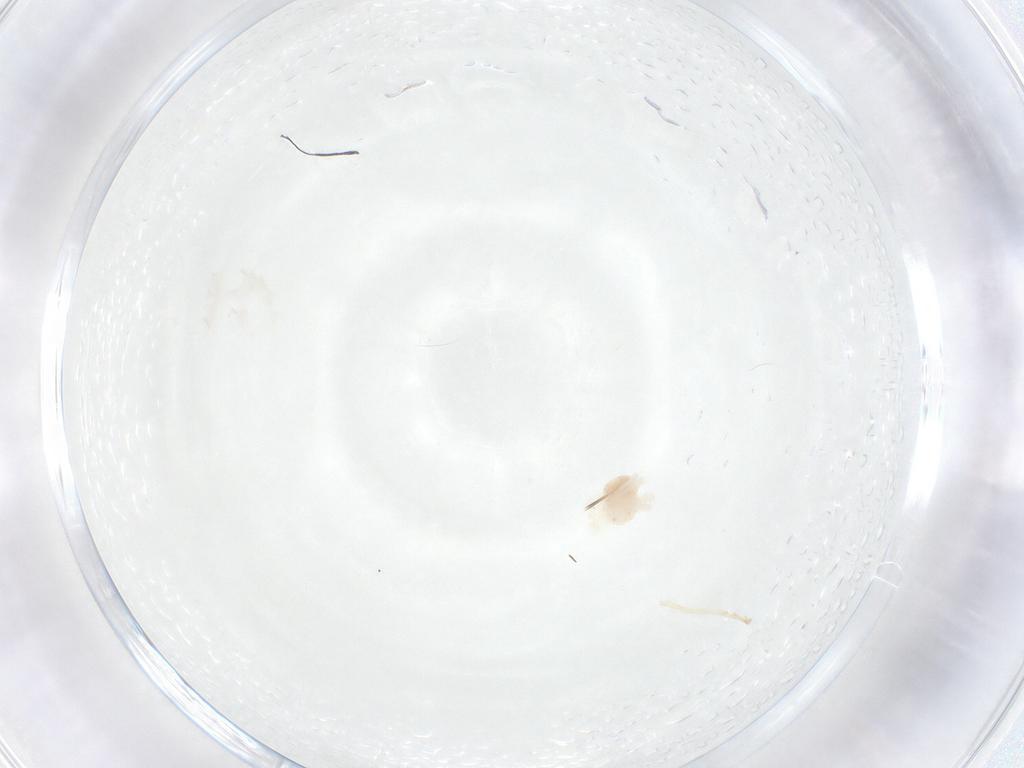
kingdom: Animalia
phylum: Arthropoda
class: Arachnida
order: Trombidiformes
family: Anystidae
